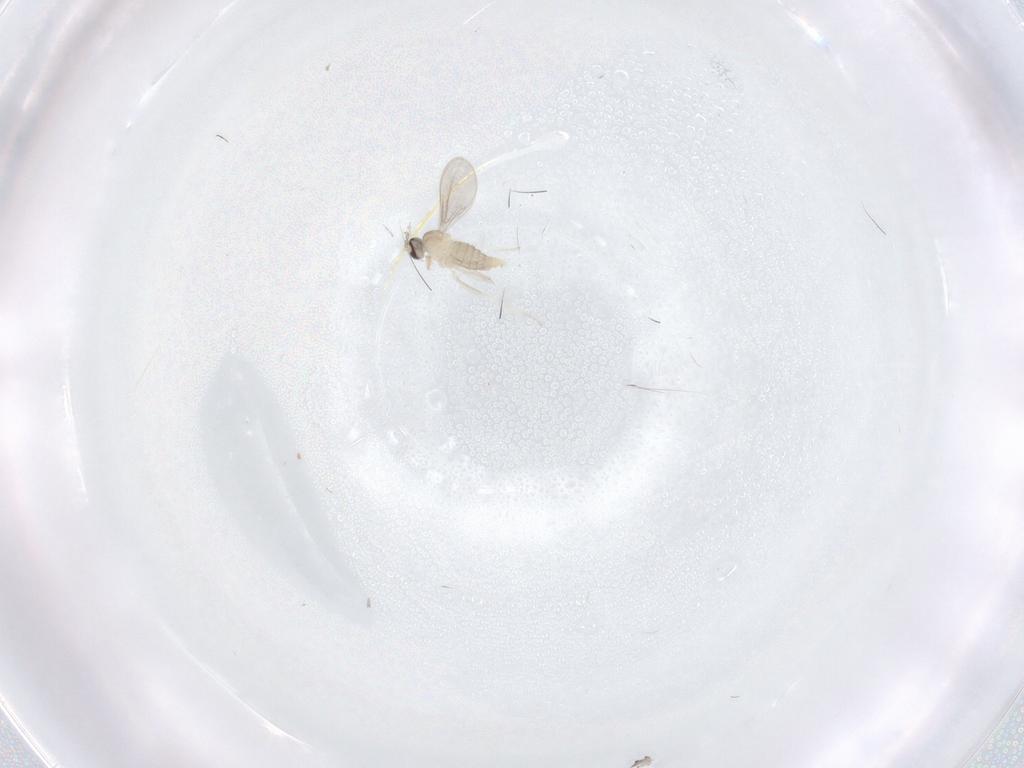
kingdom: Animalia
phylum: Arthropoda
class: Insecta
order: Diptera
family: Cecidomyiidae
